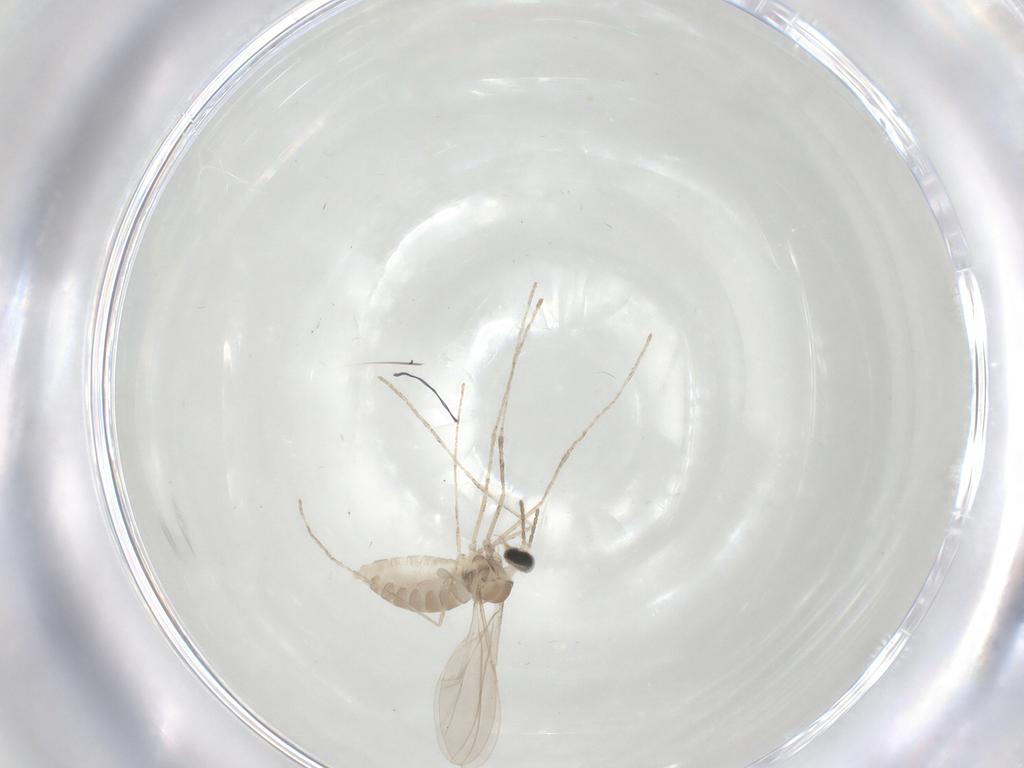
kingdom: Animalia
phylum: Arthropoda
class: Insecta
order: Diptera
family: Cecidomyiidae
